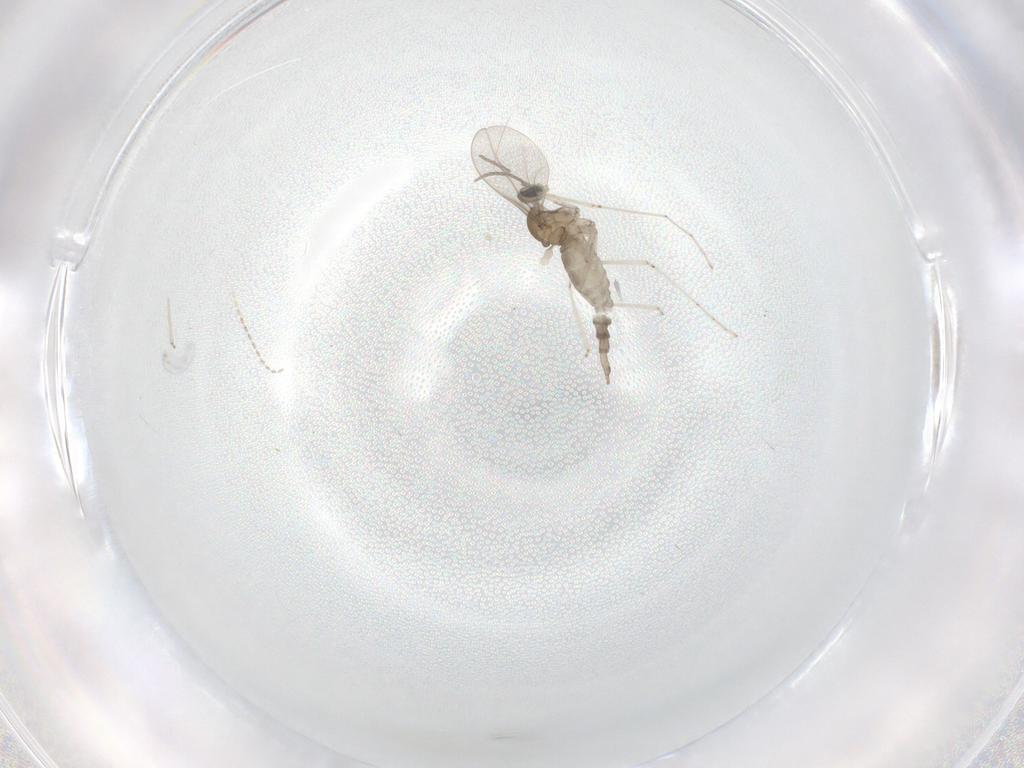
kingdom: Animalia
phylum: Arthropoda
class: Insecta
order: Diptera
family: Cecidomyiidae
